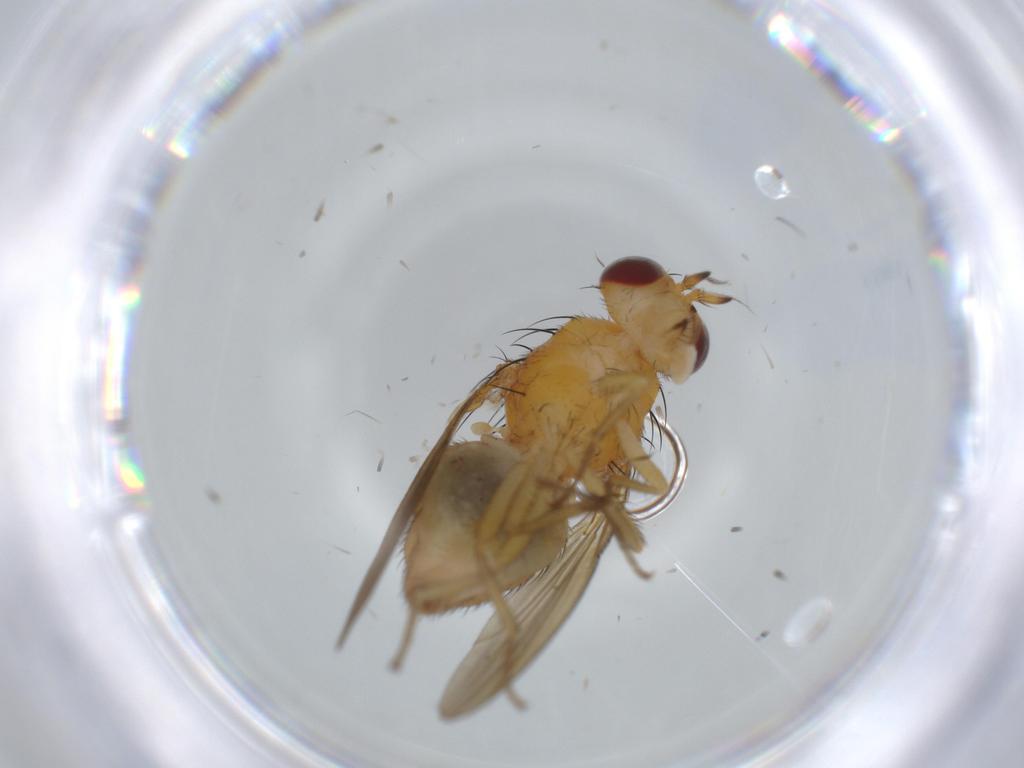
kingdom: Animalia
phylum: Arthropoda
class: Insecta
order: Diptera
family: Lauxaniidae
